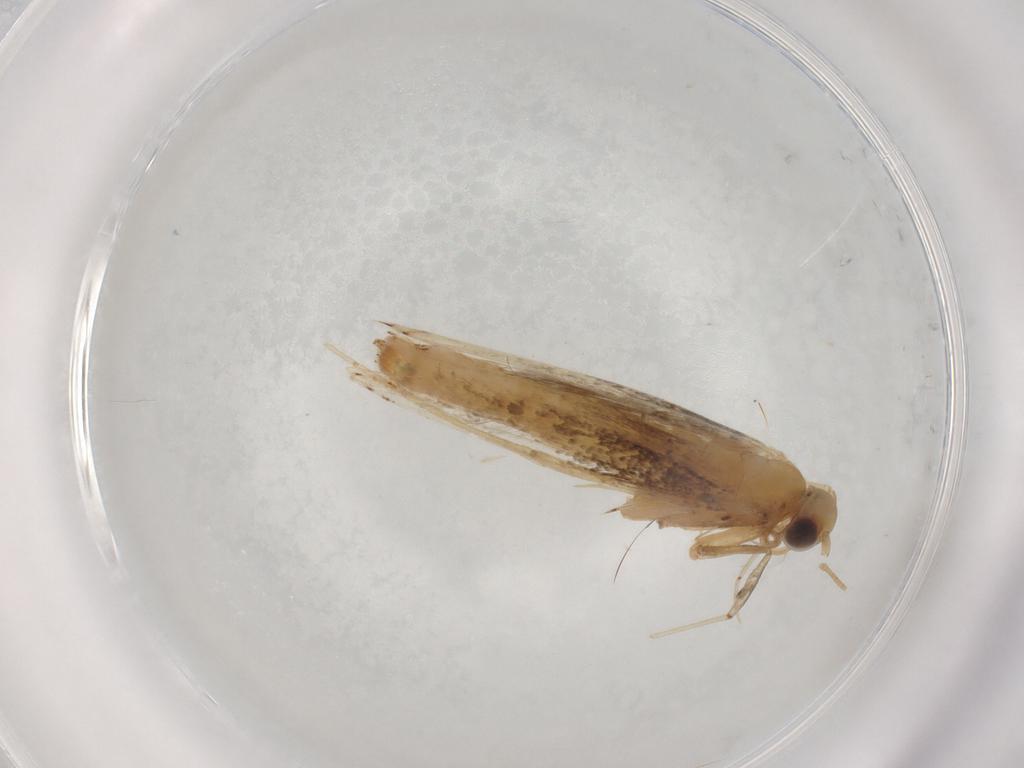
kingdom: Animalia
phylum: Arthropoda
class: Insecta
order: Lepidoptera
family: Gracillariidae
